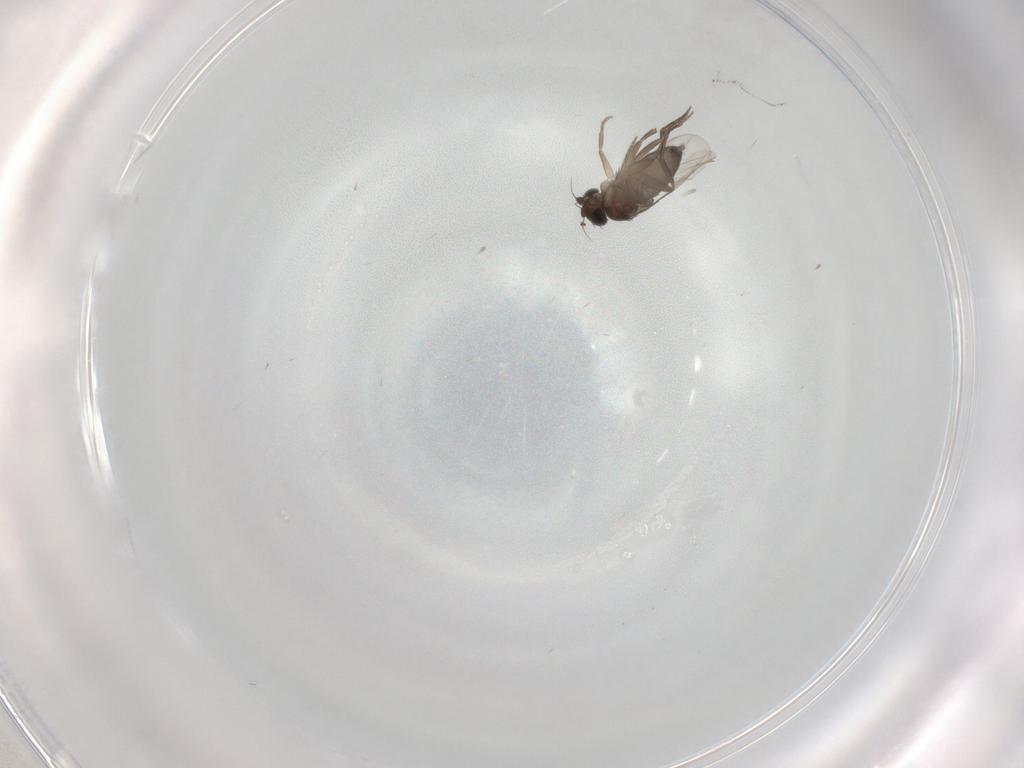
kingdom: Animalia
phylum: Arthropoda
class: Insecta
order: Diptera
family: Phoridae
